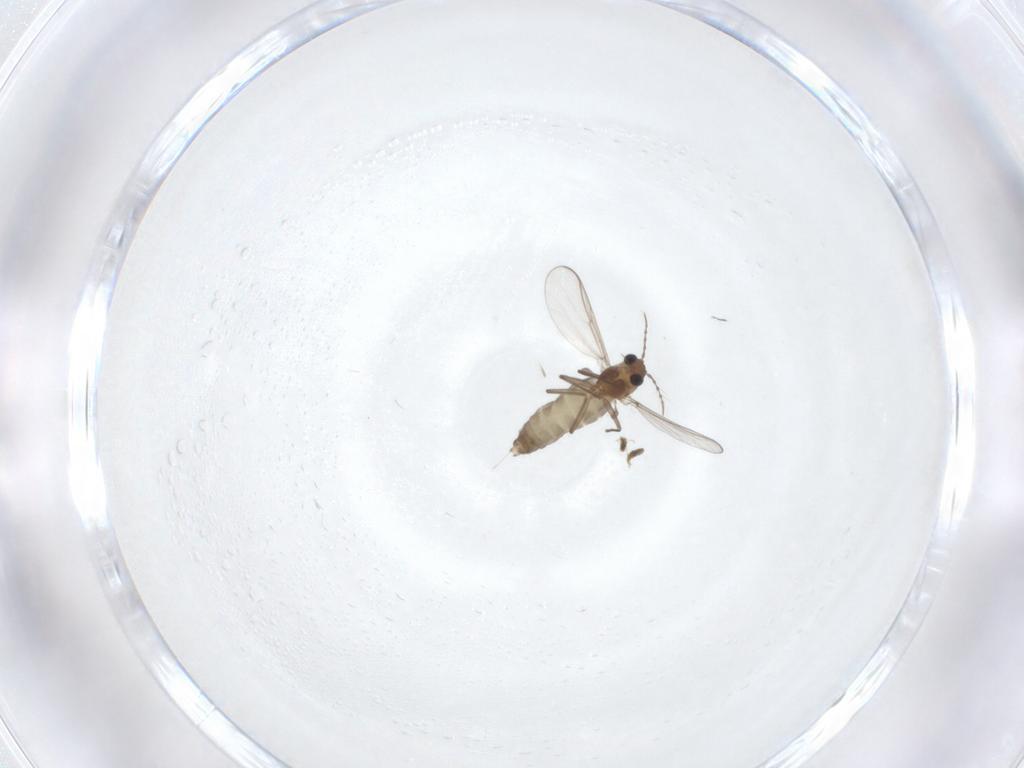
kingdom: Animalia
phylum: Arthropoda
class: Insecta
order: Diptera
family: Chironomidae
